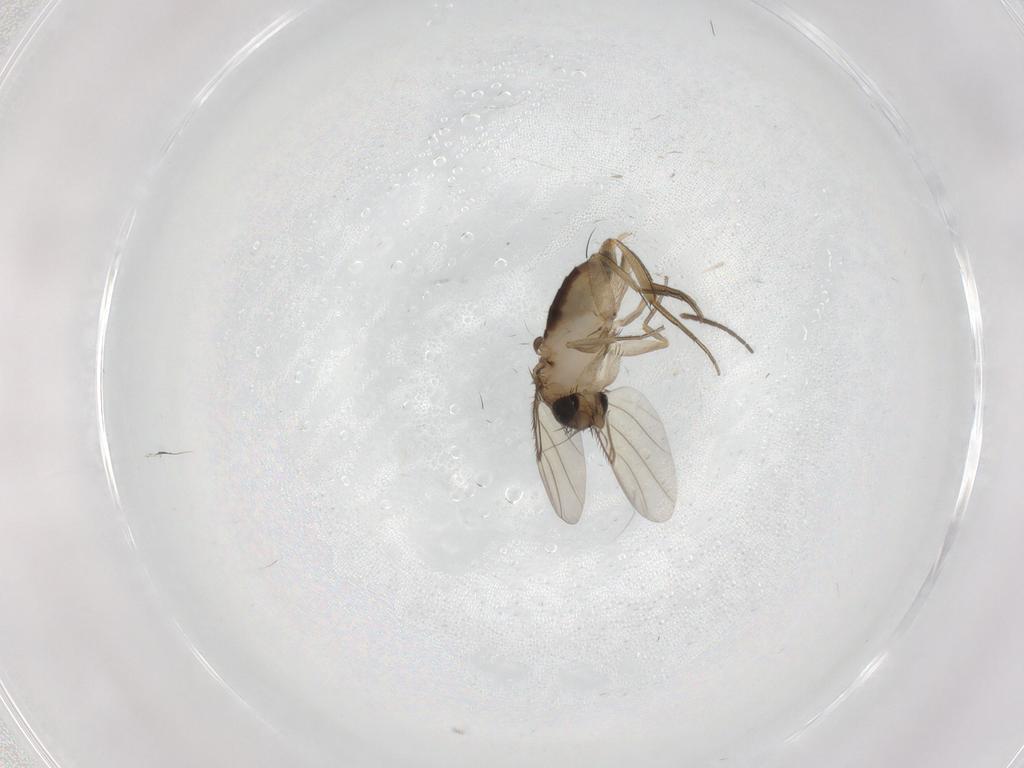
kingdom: Animalia
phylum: Arthropoda
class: Insecta
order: Diptera
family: Phoridae
